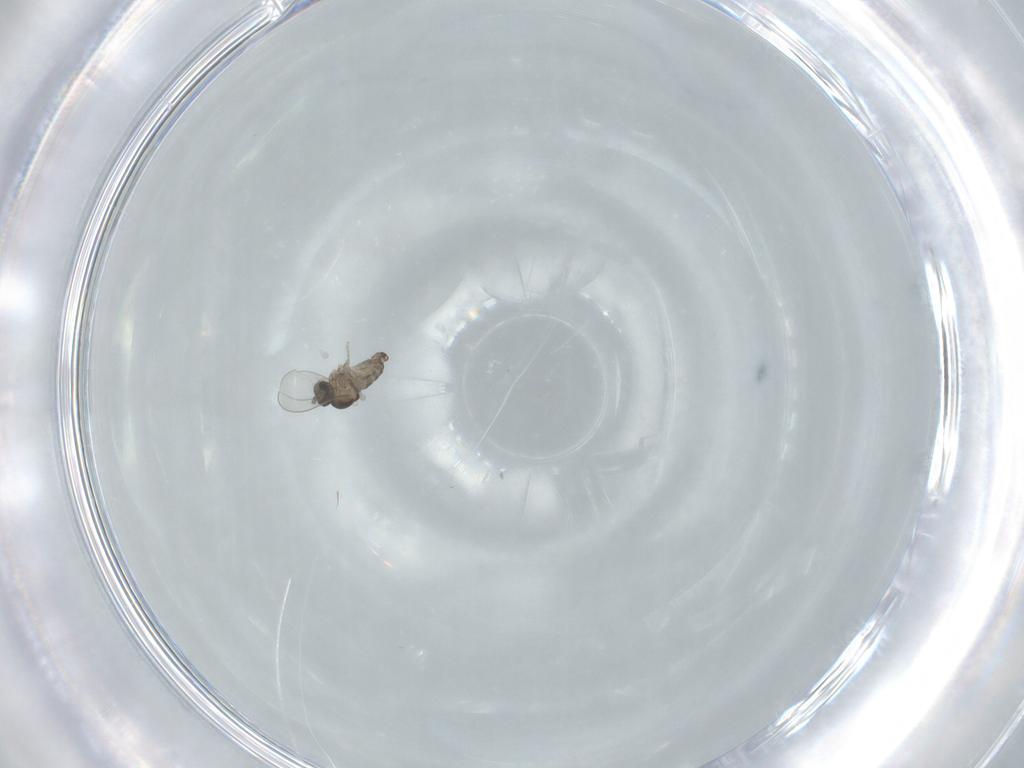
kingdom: Animalia
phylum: Arthropoda
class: Insecta
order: Diptera
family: Cecidomyiidae
